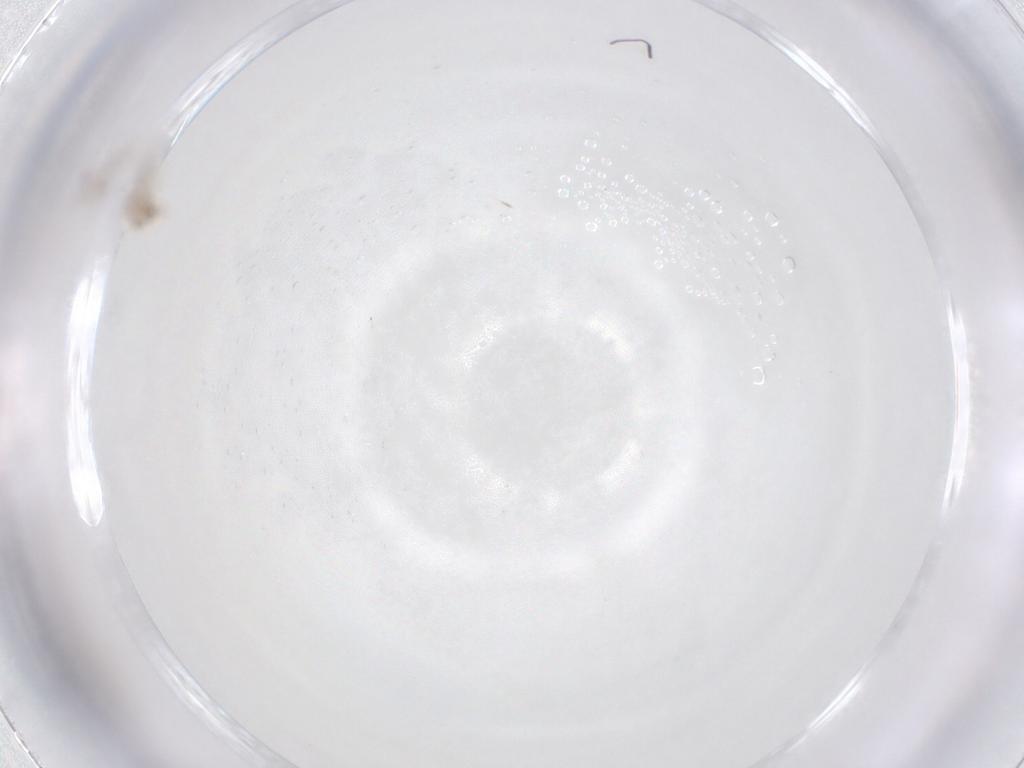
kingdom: Animalia
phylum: Arthropoda
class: Insecta
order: Hymenoptera
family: Mymaridae
